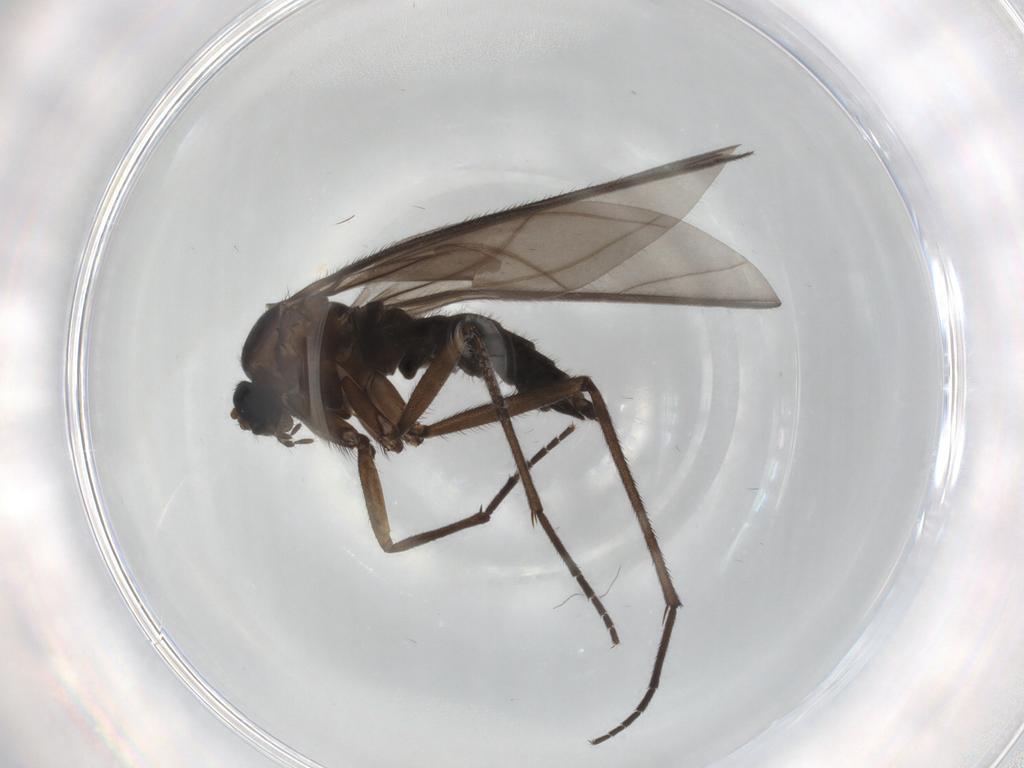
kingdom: Animalia
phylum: Arthropoda
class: Insecta
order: Diptera
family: Sciaridae
